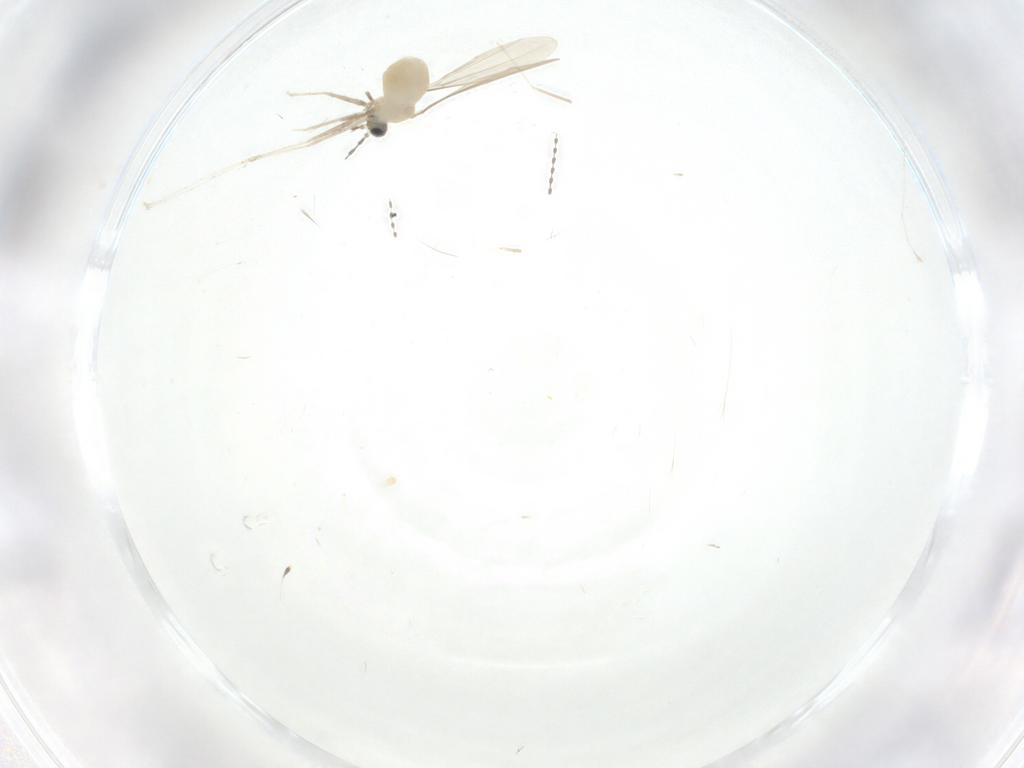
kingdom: Animalia
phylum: Arthropoda
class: Insecta
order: Diptera
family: Cecidomyiidae
